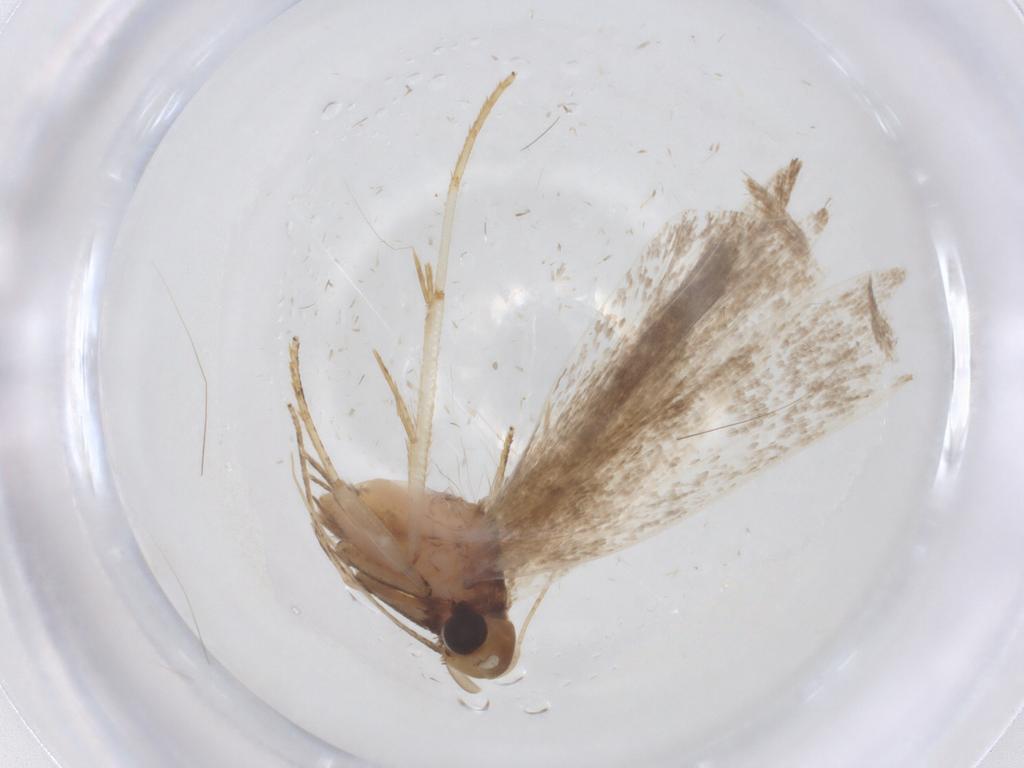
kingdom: Animalia
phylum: Arthropoda
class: Insecta
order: Lepidoptera
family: Gelechiidae
